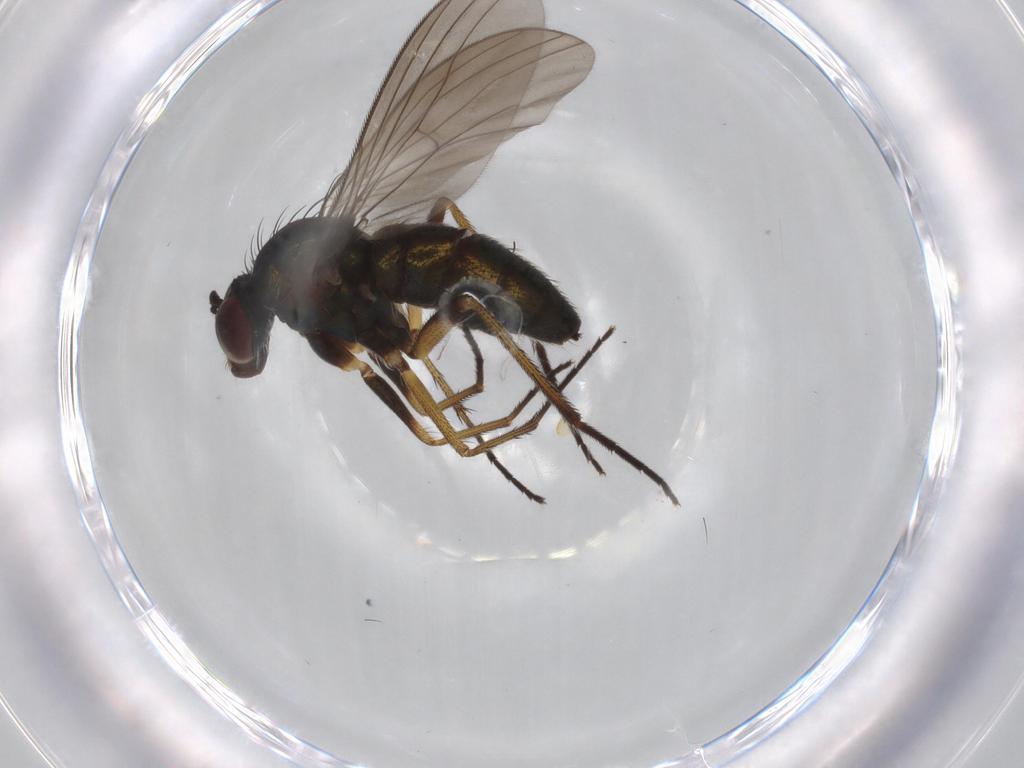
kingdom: Animalia
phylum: Arthropoda
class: Insecta
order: Diptera
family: Dolichopodidae
